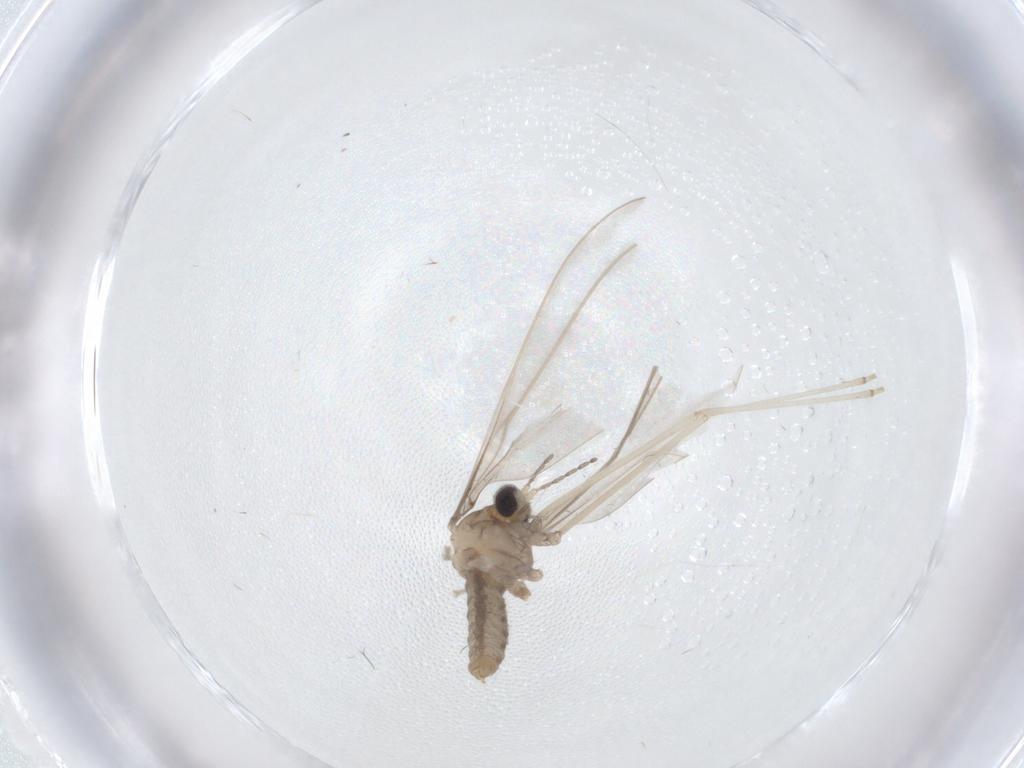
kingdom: Animalia
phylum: Arthropoda
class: Insecta
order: Diptera
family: Cecidomyiidae
